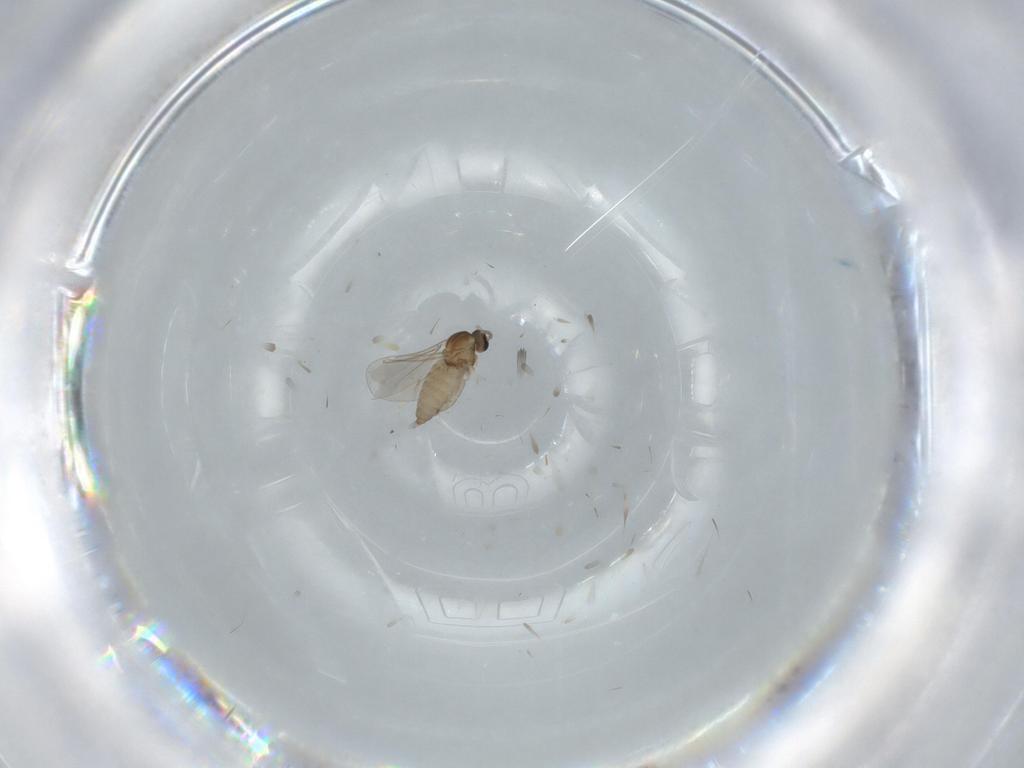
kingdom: Animalia
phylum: Arthropoda
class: Insecta
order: Diptera
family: Cecidomyiidae
